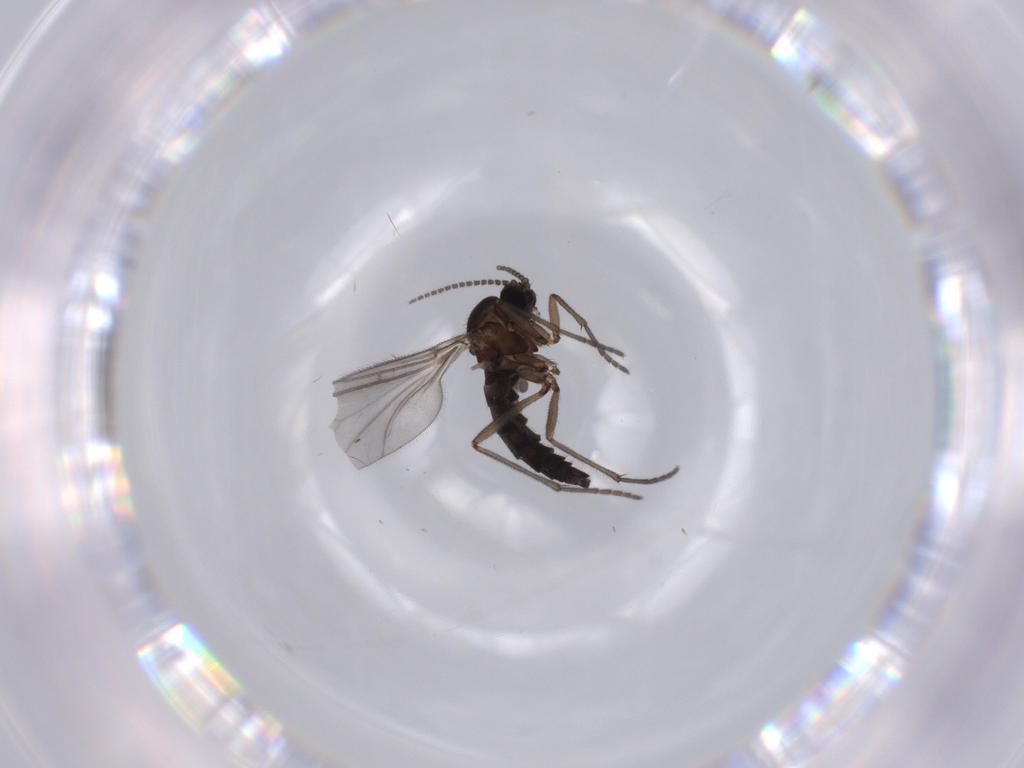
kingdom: Animalia
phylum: Arthropoda
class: Insecta
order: Diptera
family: Sciaridae
